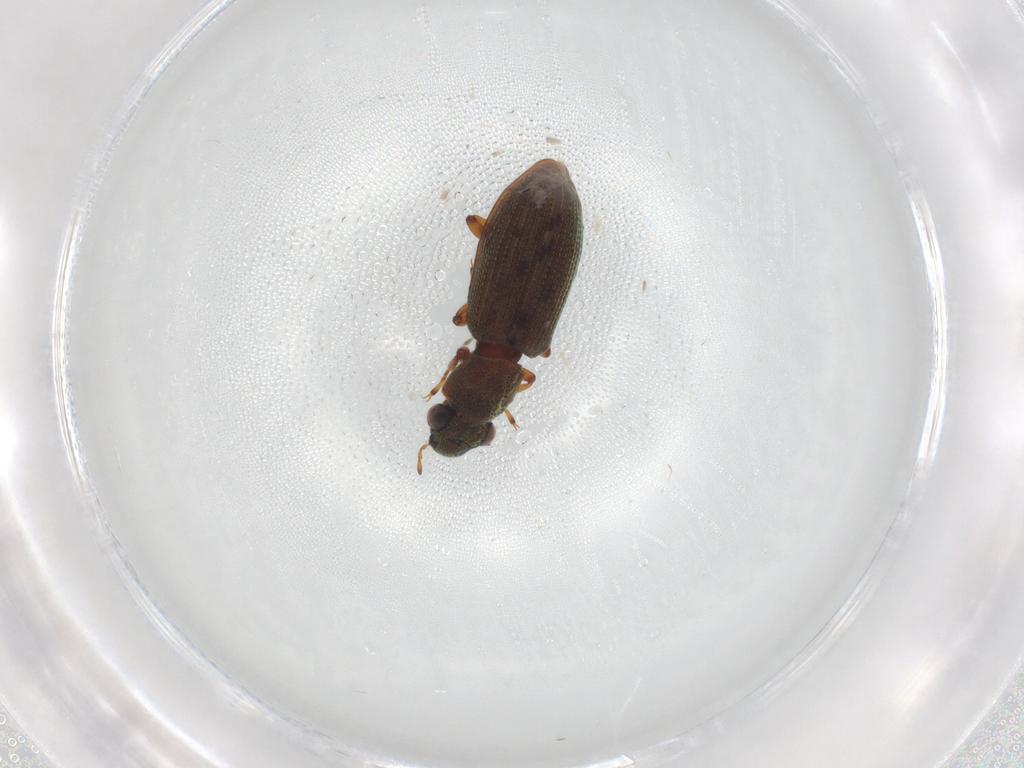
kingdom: Animalia
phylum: Arthropoda
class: Insecta
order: Coleoptera
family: Hydrophilidae
